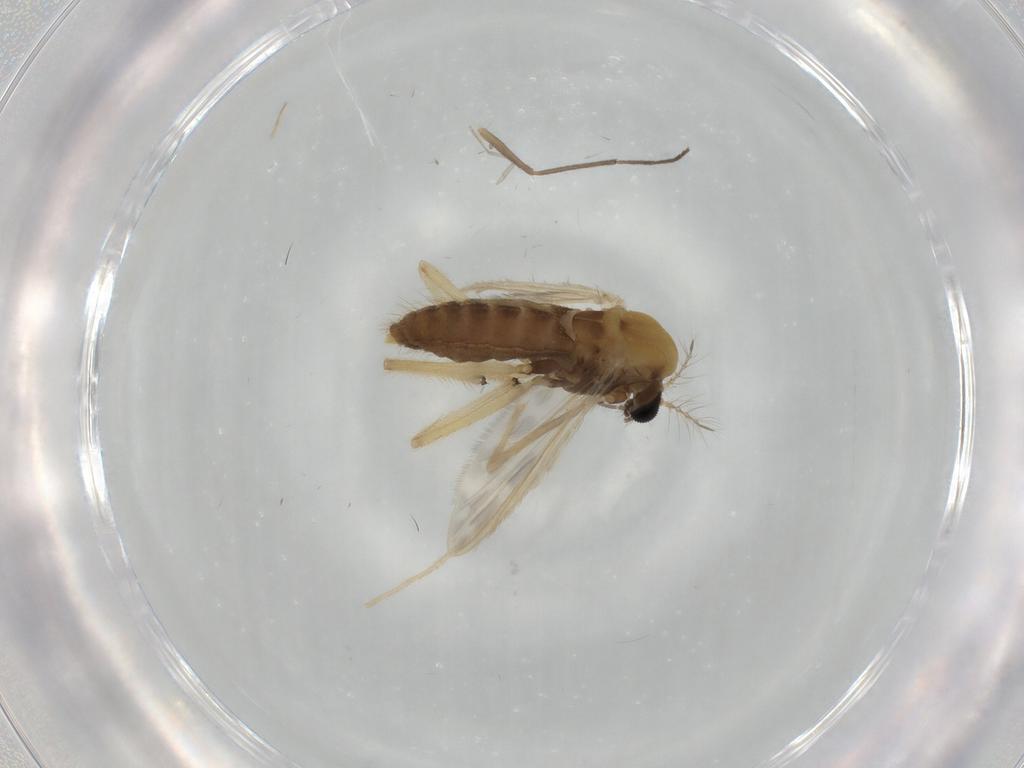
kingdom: Animalia
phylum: Arthropoda
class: Insecta
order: Diptera
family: Chironomidae
